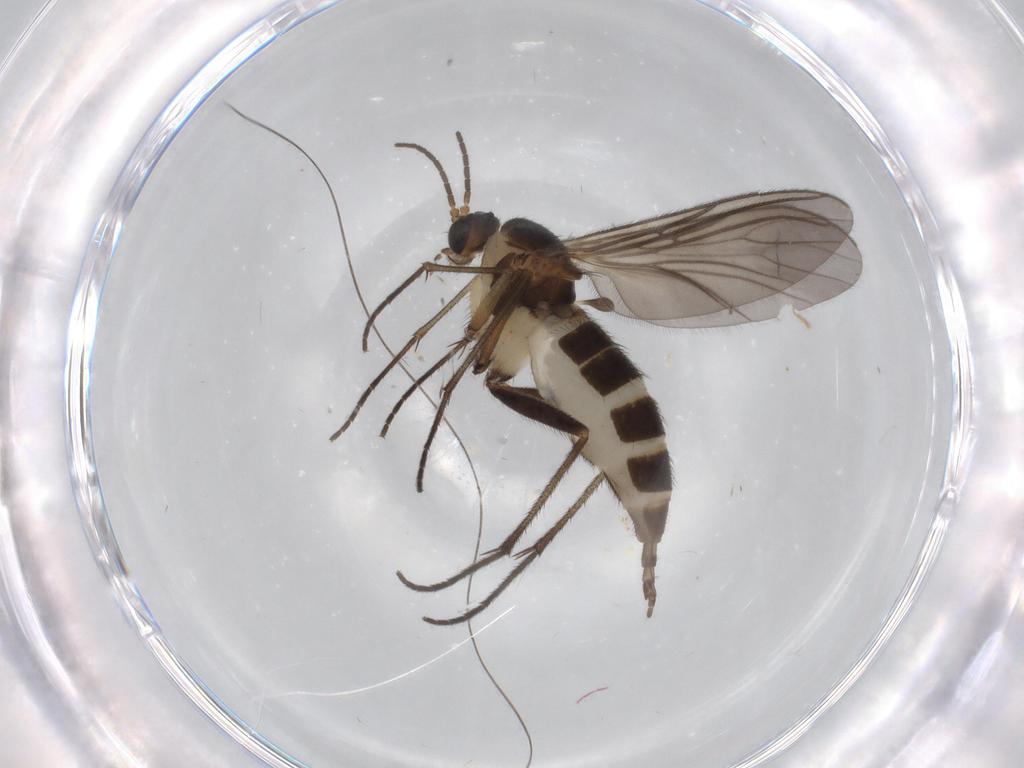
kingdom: Animalia
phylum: Arthropoda
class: Insecta
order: Diptera
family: Sciaridae
